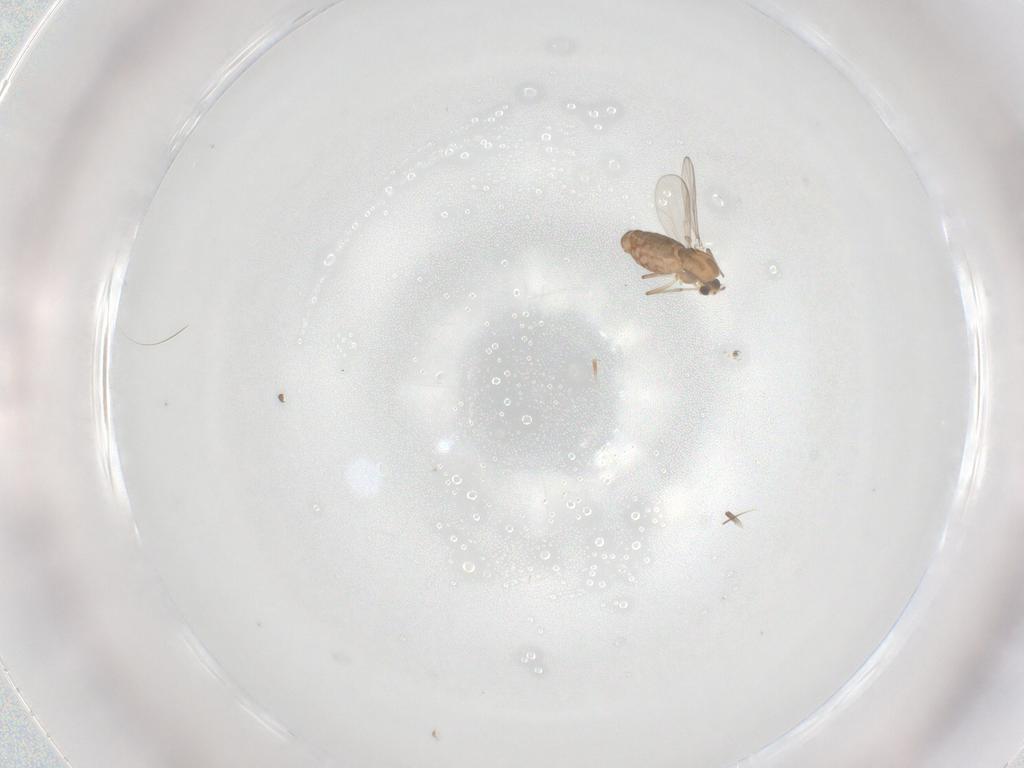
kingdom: Animalia
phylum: Arthropoda
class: Insecta
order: Diptera
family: Chironomidae
